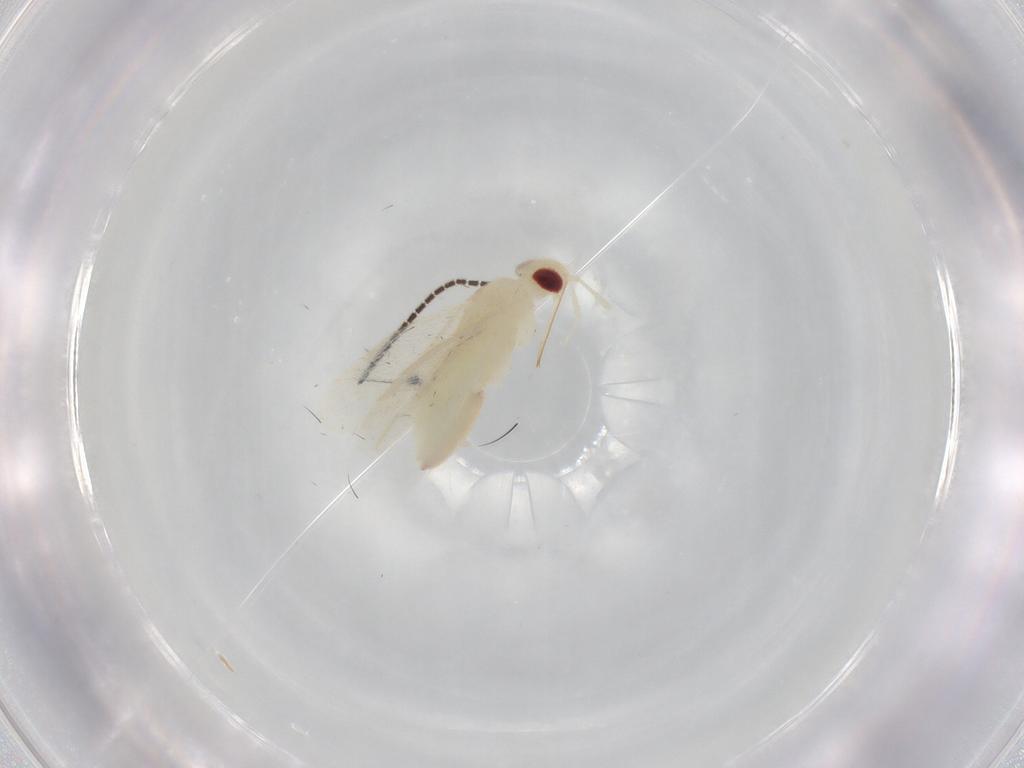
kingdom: Animalia
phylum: Arthropoda
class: Insecta
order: Hemiptera
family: Miridae
